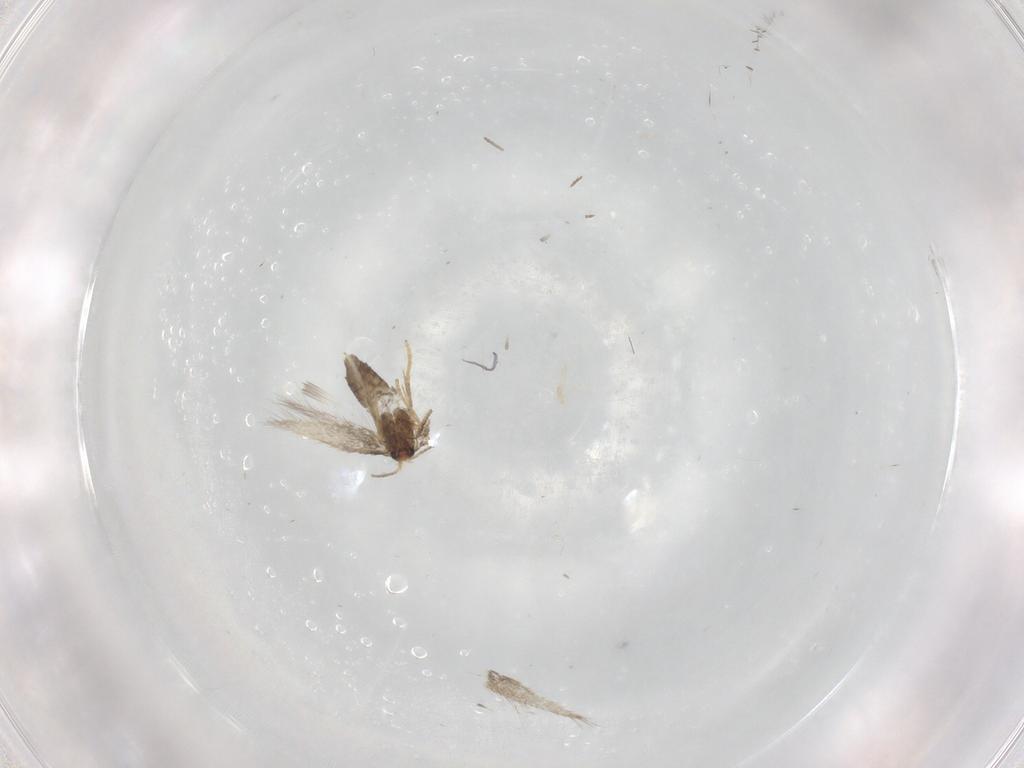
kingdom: Animalia
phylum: Arthropoda
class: Insecta
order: Lepidoptera
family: Nepticulidae
